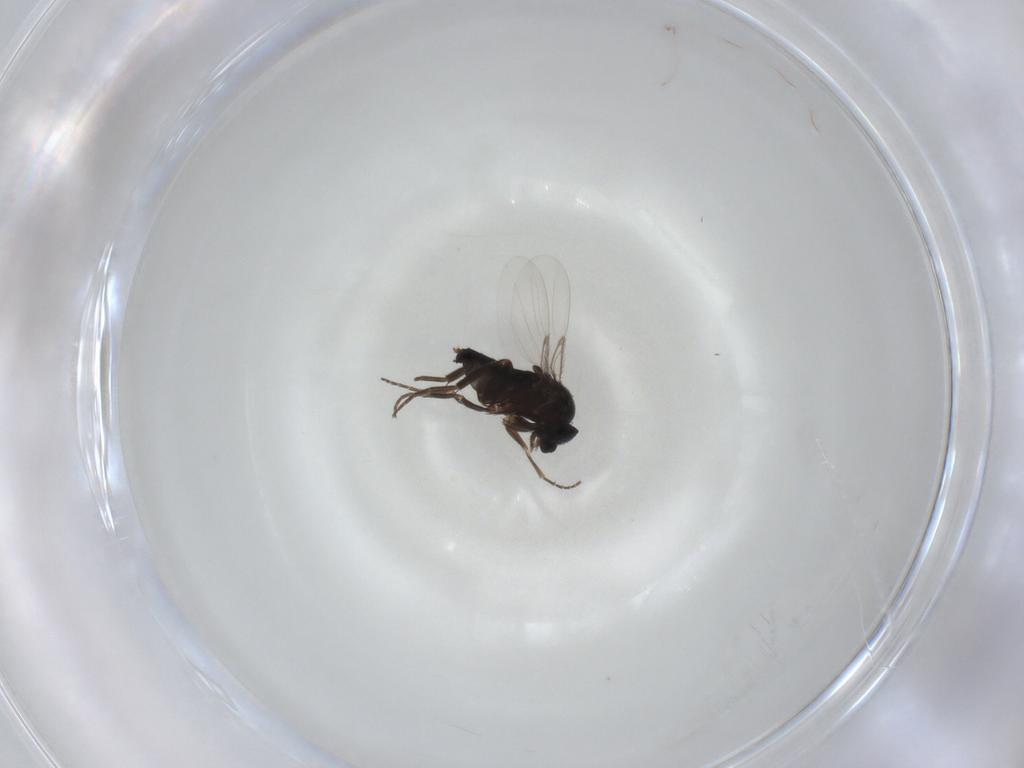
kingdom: Animalia
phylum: Arthropoda
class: Insecta
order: Diptera
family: Phoridae
